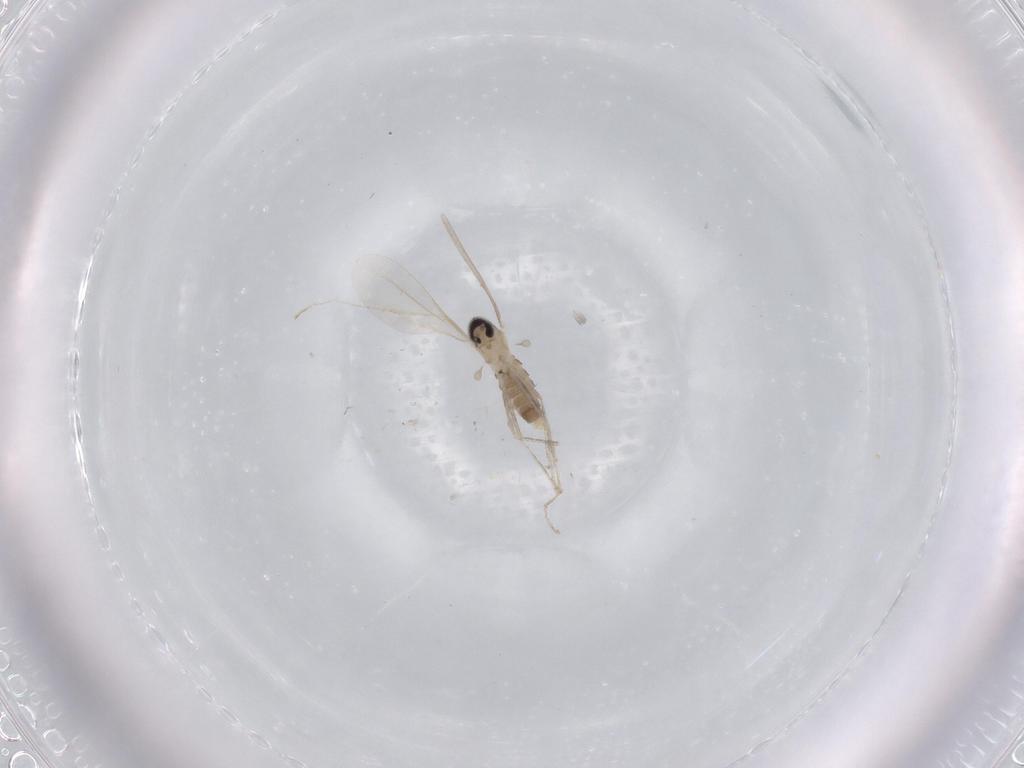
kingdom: Animalia
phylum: Arthropoda
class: Insecta
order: Diptera
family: Cecidomyiidae
